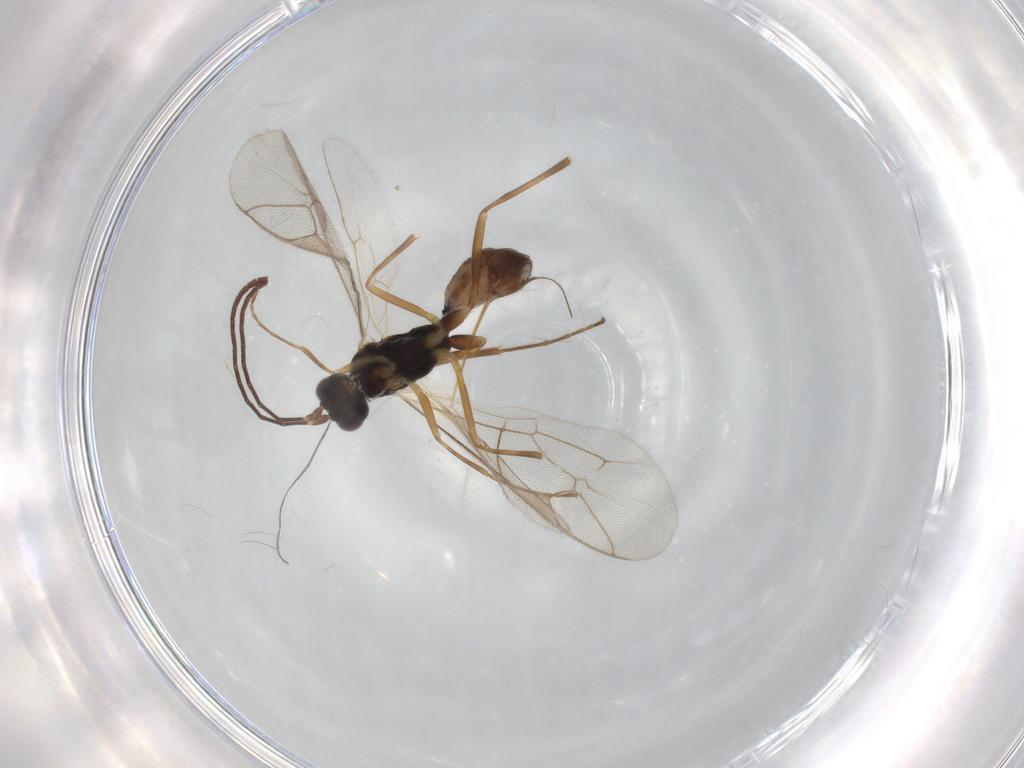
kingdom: Animalia
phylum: Arthropoda
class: Insecta
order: Hymenoptera
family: Ichneumonidae
